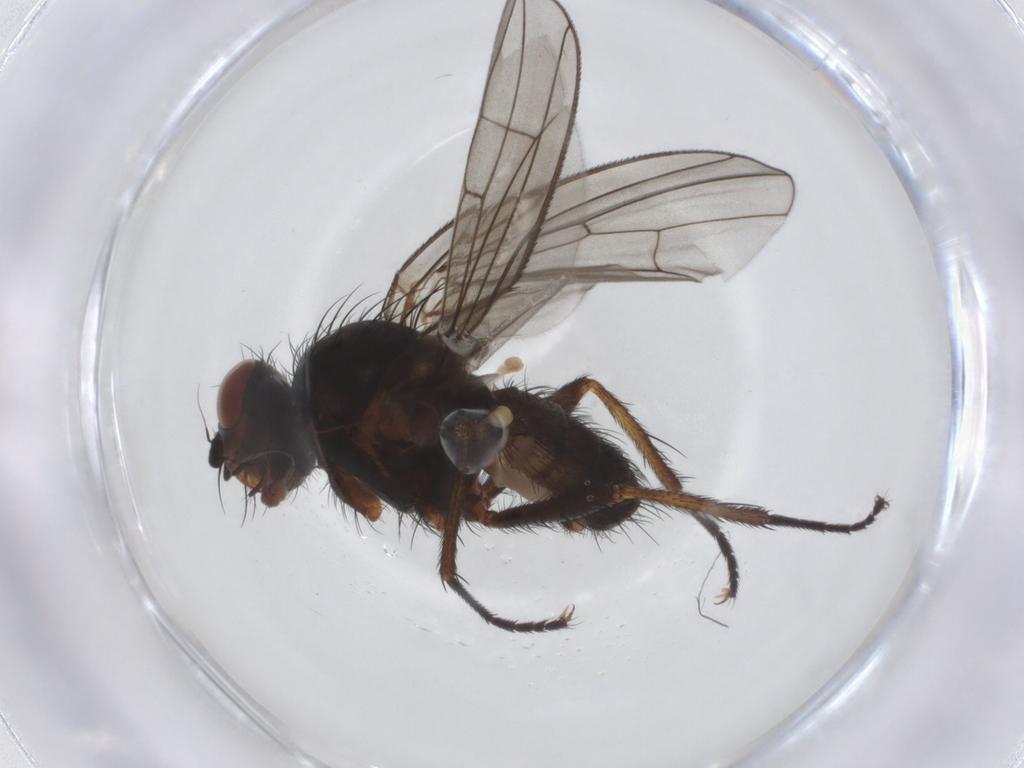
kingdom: Animalia
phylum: Arthropoda
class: Insecta
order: Diptera
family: Anthomyiidae
